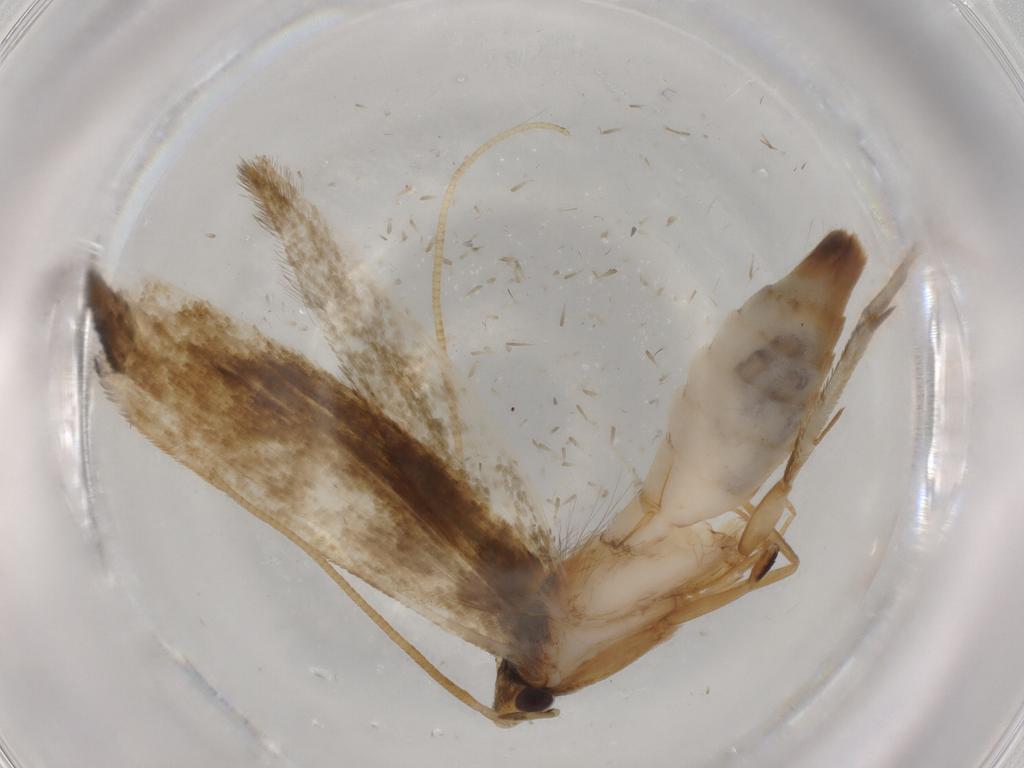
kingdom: Animalia
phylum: Arthropoda
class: Insecta
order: Lepidoptera
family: Tineidae
